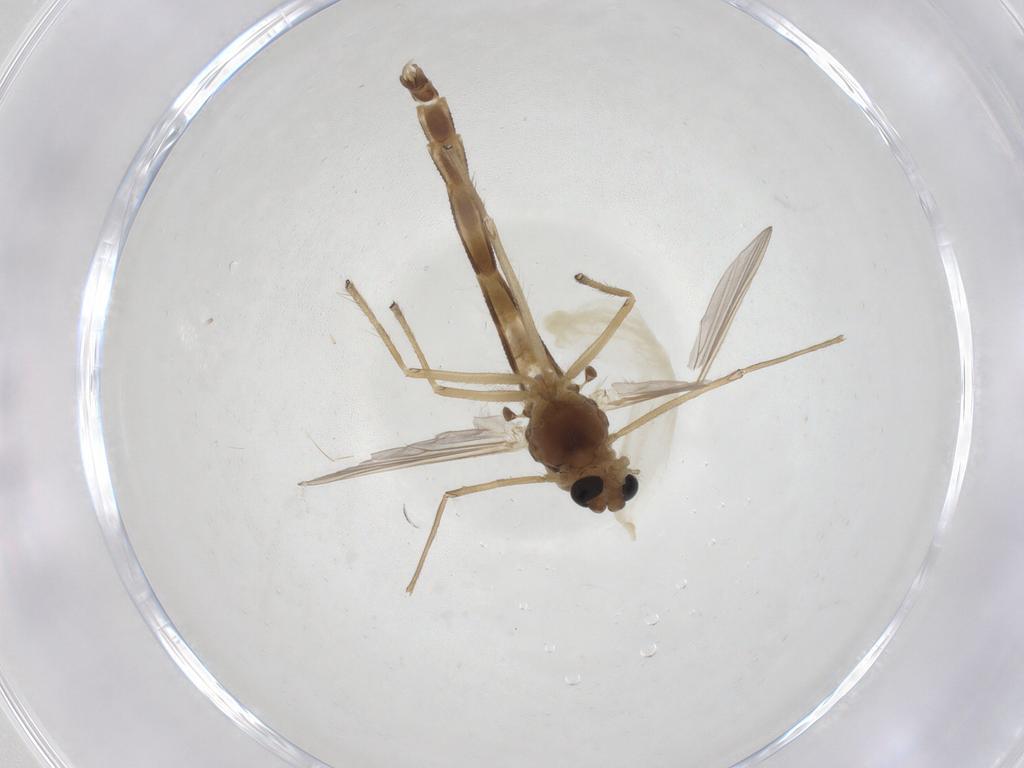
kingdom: Animalia
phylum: Arthropoda
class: Insecta
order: Diptera
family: Chironomidae
